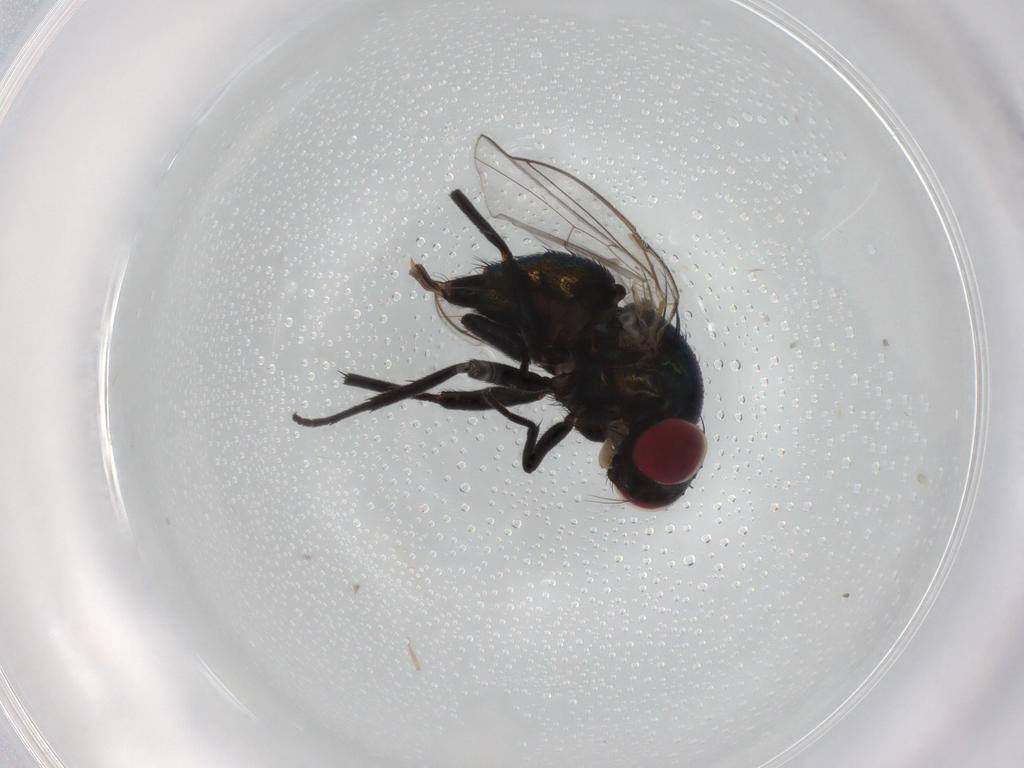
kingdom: Animalia
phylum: Arthropoda
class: Insecta
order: Diptera
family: Agromyzidae
